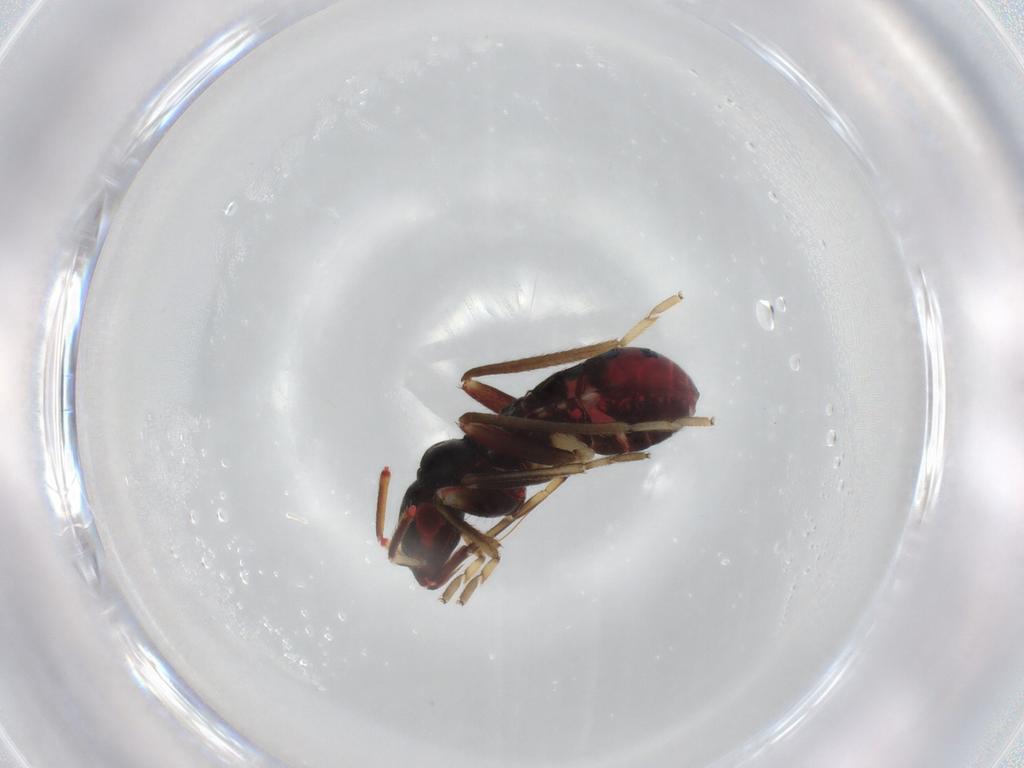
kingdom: Animalia
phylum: Arthropoda
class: Insecta
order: Hemiptera
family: Rhyparochromidae
